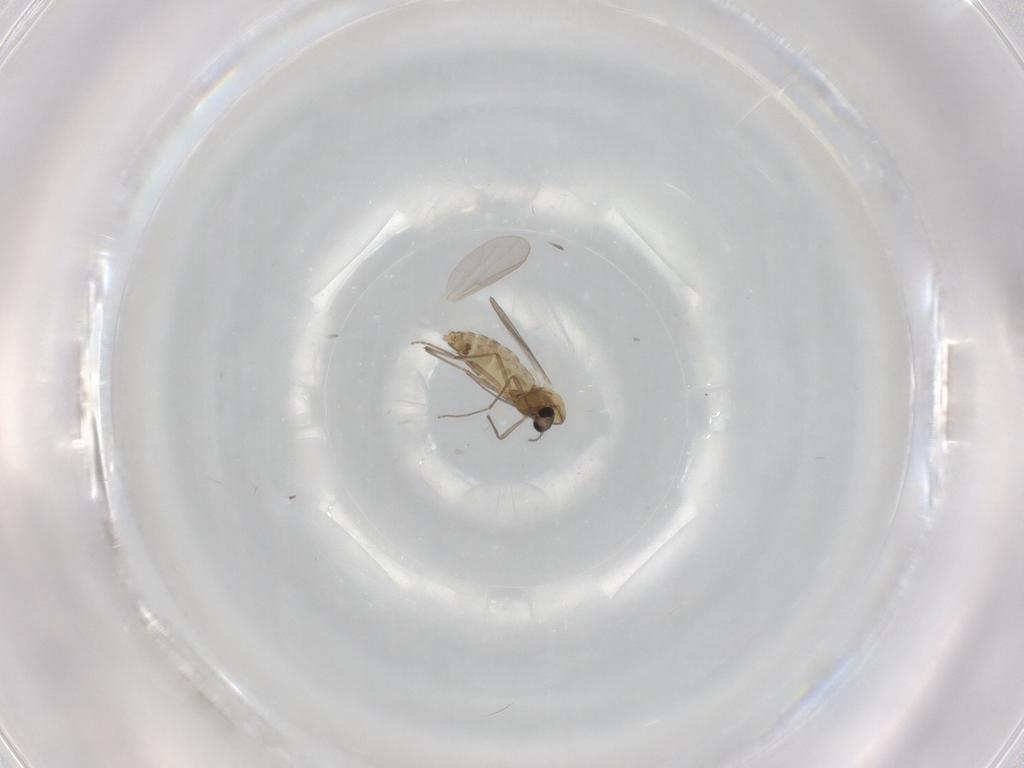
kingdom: Animalia
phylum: Arthropoda
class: Insecta
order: Diptera
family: Chironomidae
